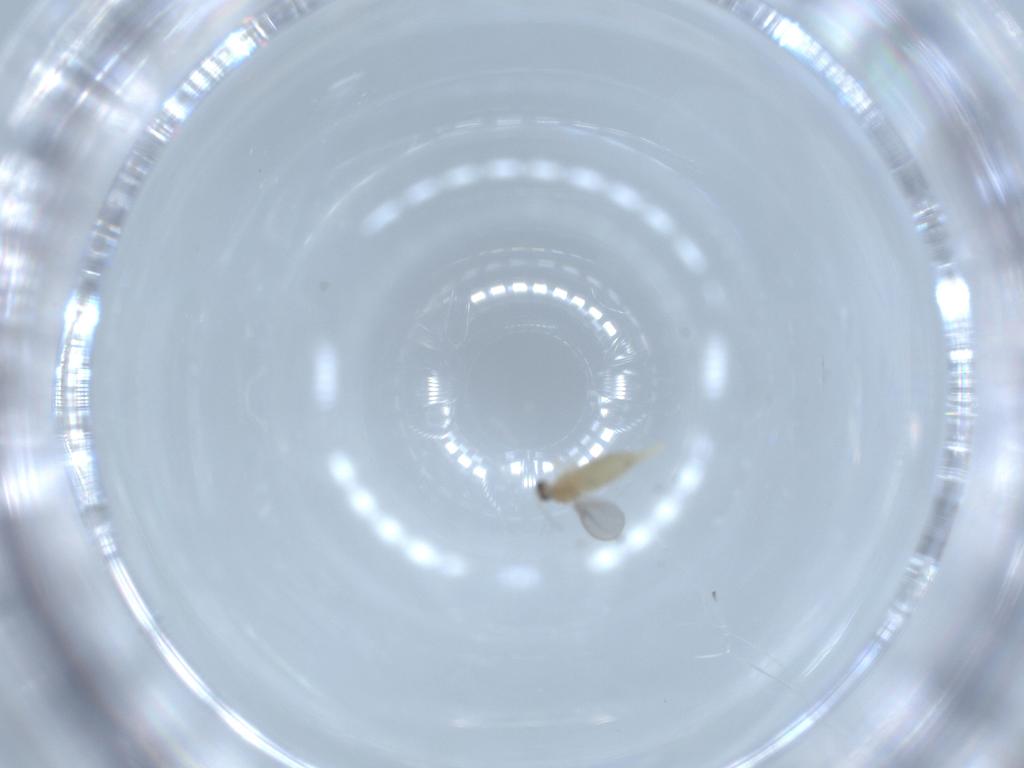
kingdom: Animalia
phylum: Arthropoda
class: Insecta
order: Diptera
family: Cecidomyiidae
